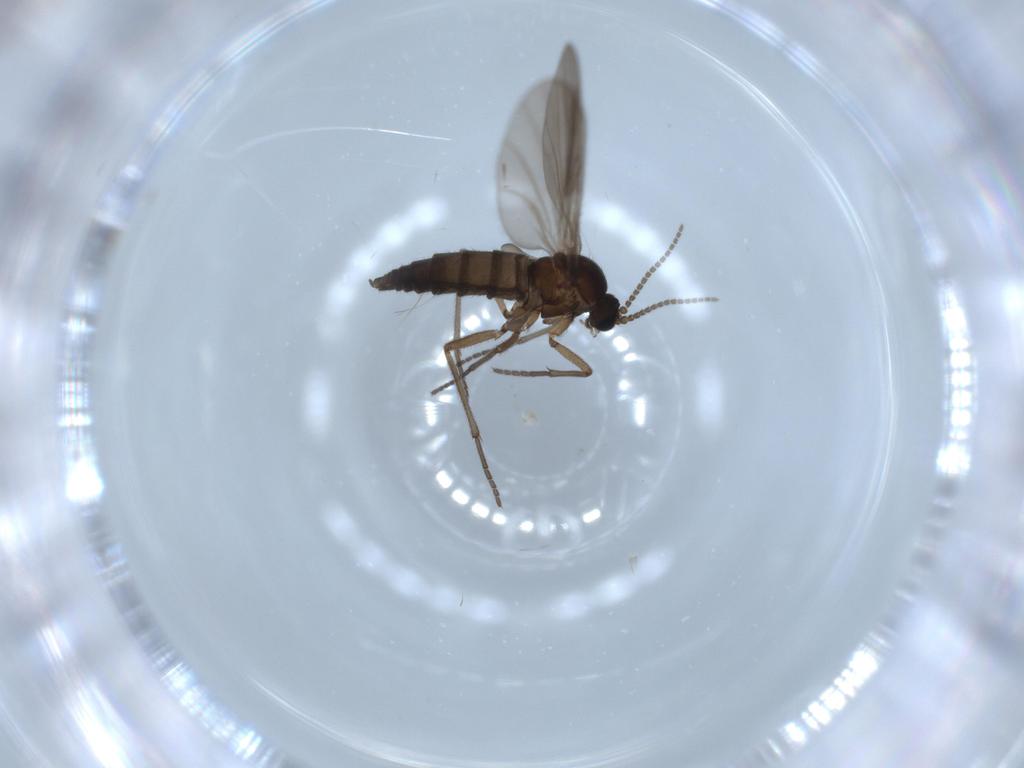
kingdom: Animalia
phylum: Arthropoda
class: Insecta
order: Diptera
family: Sciaridae
